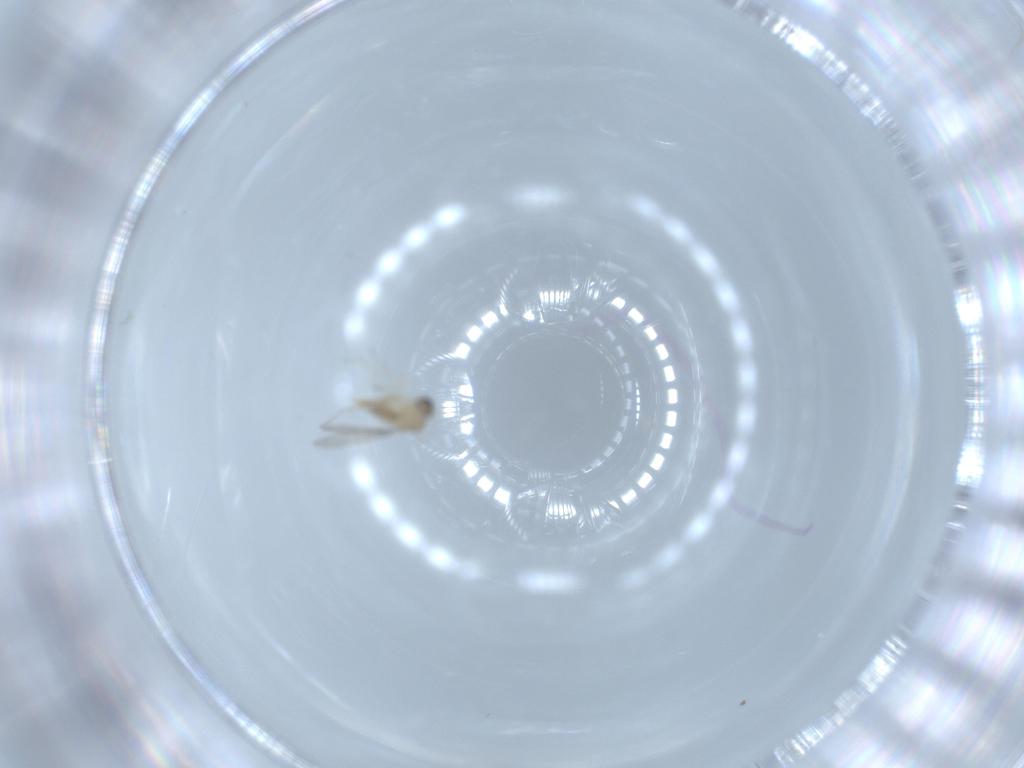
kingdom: Animalia
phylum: Arthropoda
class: Insecta
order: Diptera
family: Cecidomyiidae
